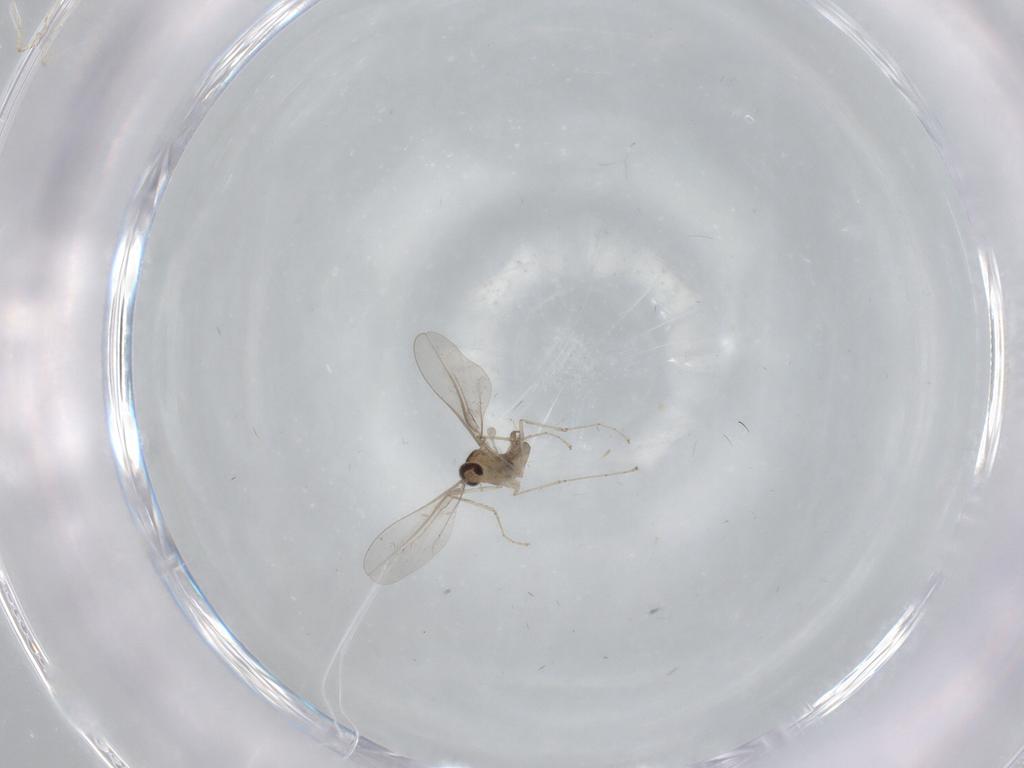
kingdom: Animalia
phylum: Arthropoda
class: Insecta
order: Diptera
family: Cecidomyiidae
